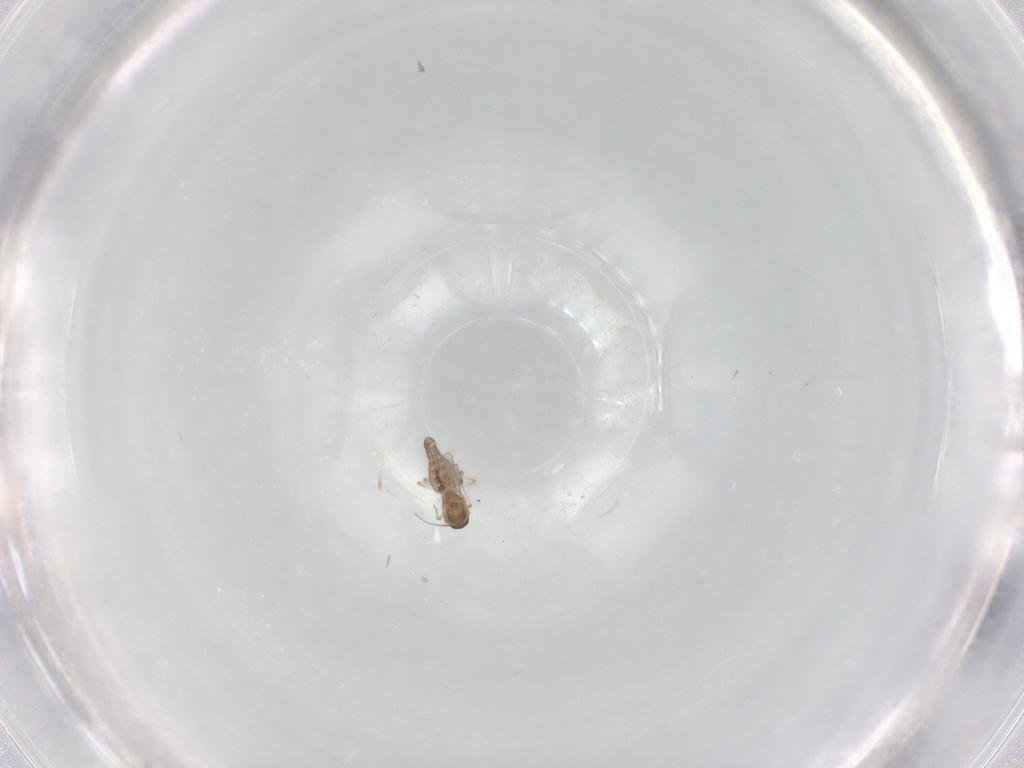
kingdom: Animalia
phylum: Arthropoda
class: Insecta
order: Diptera
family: Ceratopogonidae
